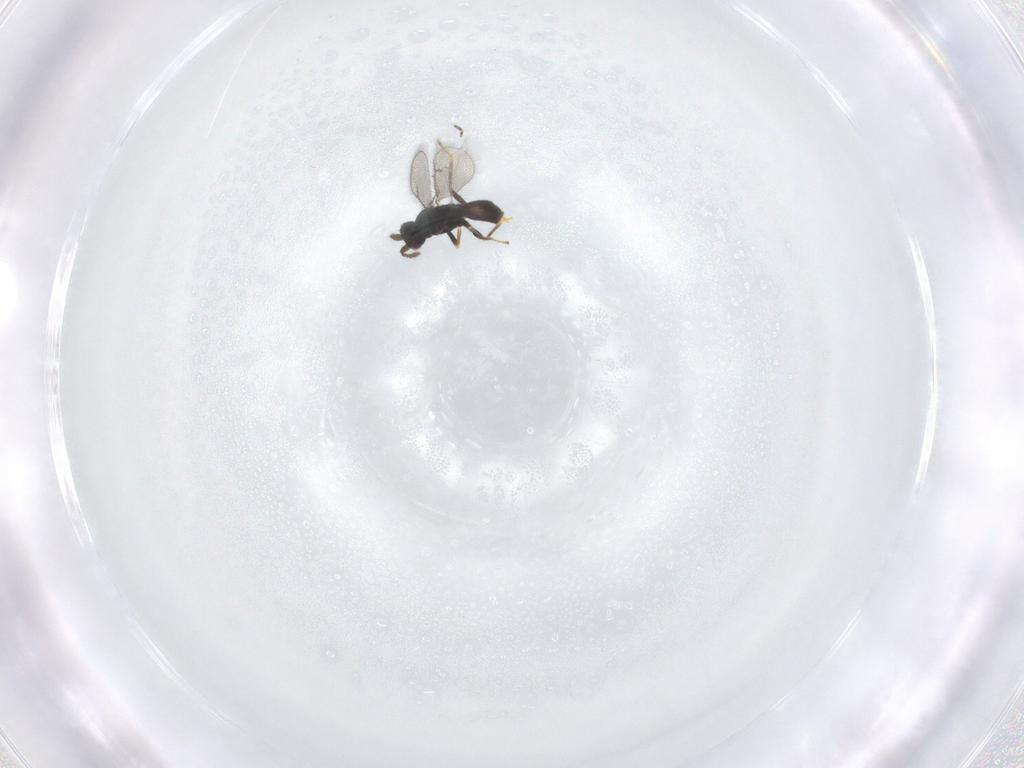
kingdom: Animalia
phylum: Arthropoda
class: Insecta
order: Hymenoptera
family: Eulophidae
